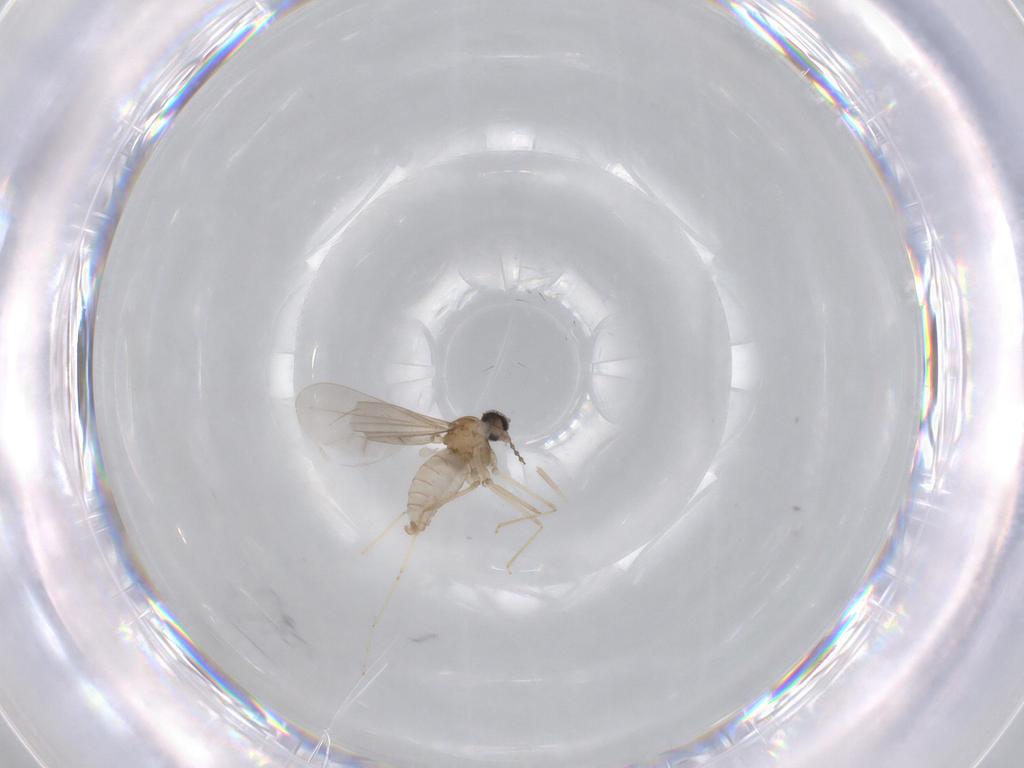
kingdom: Animalia
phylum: Arthropoda
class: Insecta
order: Diptera
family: Cecidomyiidae
